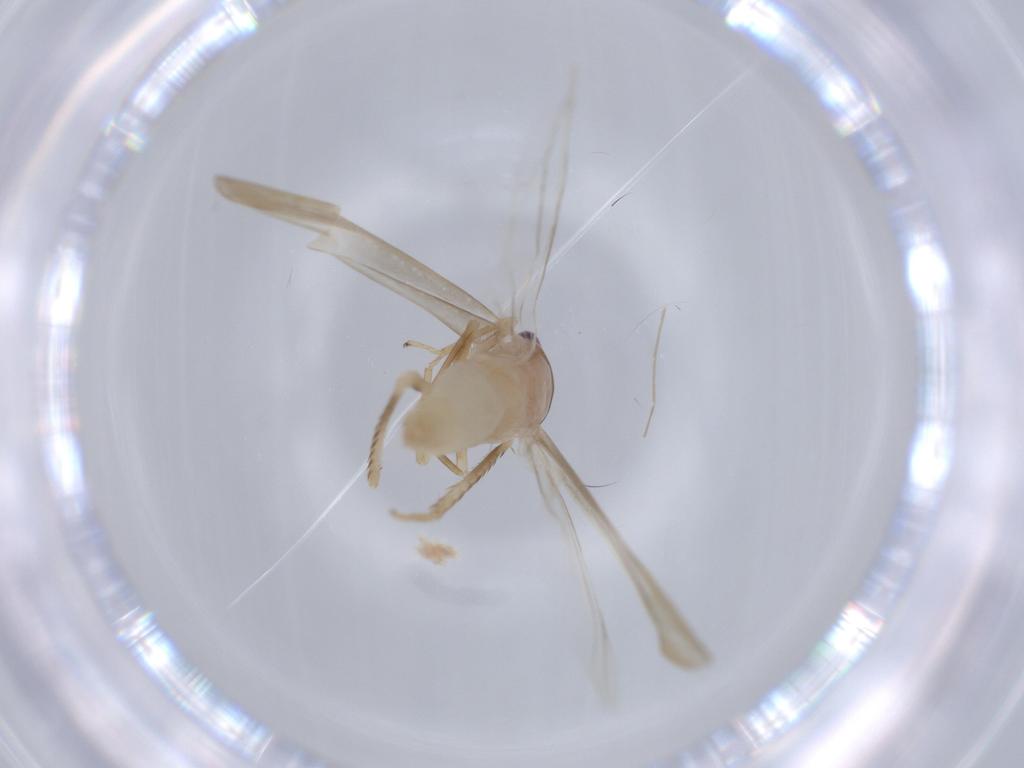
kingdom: Animalia
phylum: Arthropoda
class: Insecta
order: Hemiptera
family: Cicadellidae
